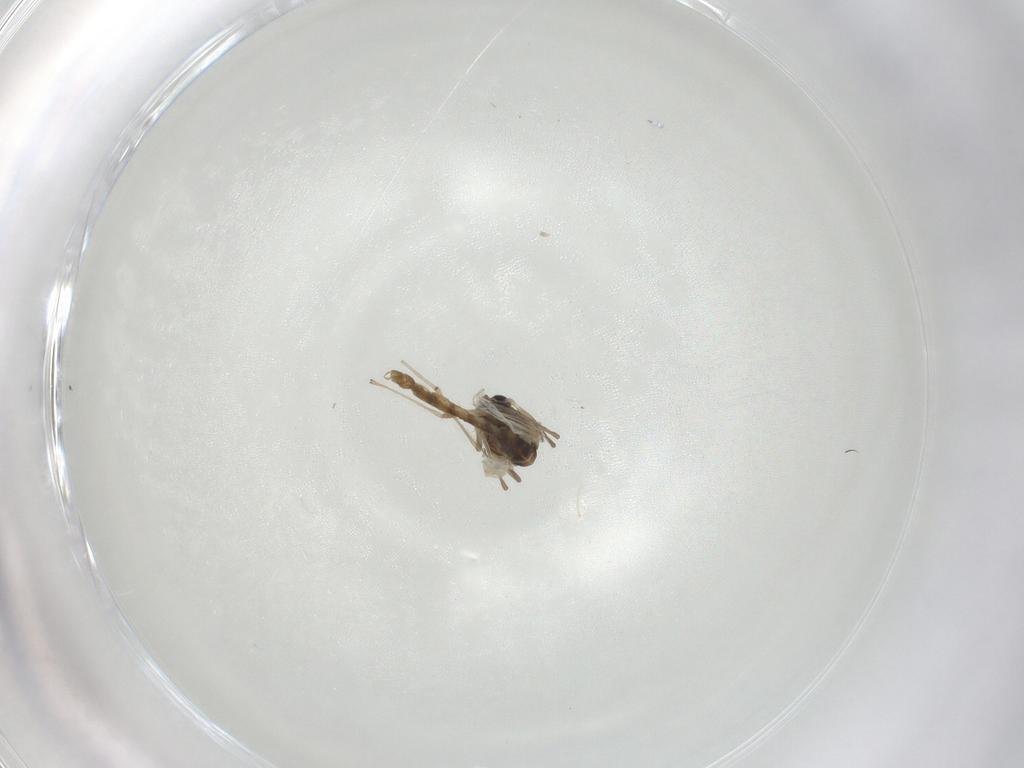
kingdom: Animalia
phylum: Arthropoda
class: Insecta
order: Diptera
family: Chironomidae
